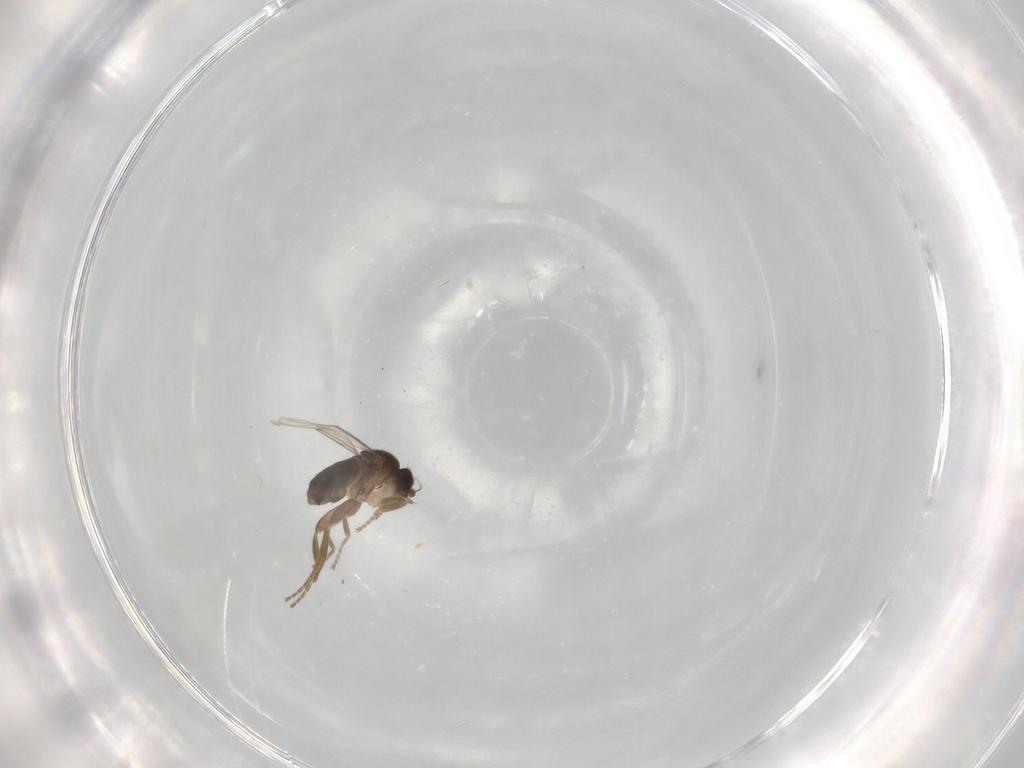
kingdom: Animalia
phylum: Arthropoda
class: Insecta
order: Diptera
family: Phoridae
